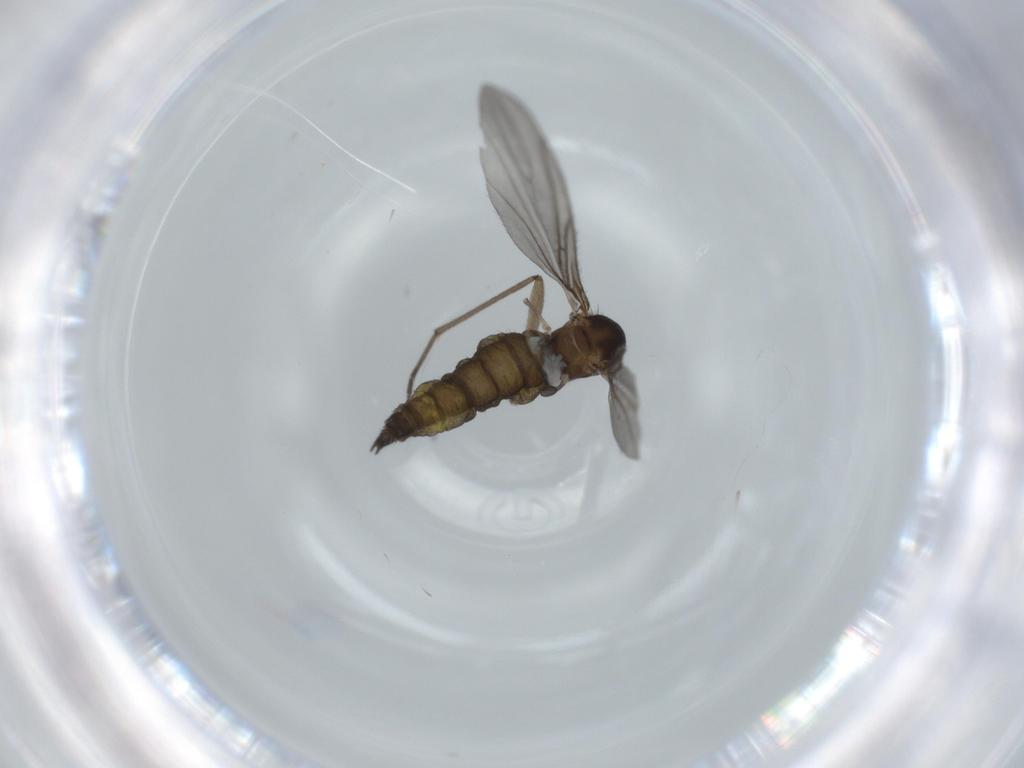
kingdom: Animalia
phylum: Arthropoda
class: Insecta
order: Diptera
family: Sciaridae
